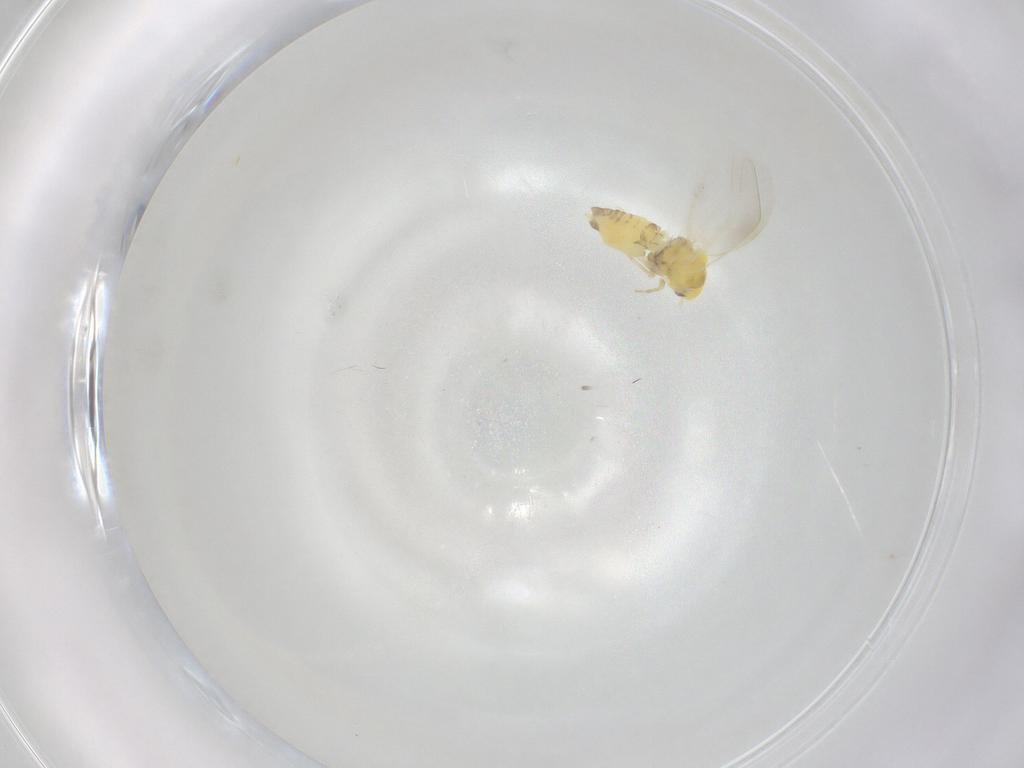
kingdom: Animalia
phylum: Arthropoda
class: Insecta
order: Hemiptera
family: Aleyrodidae
